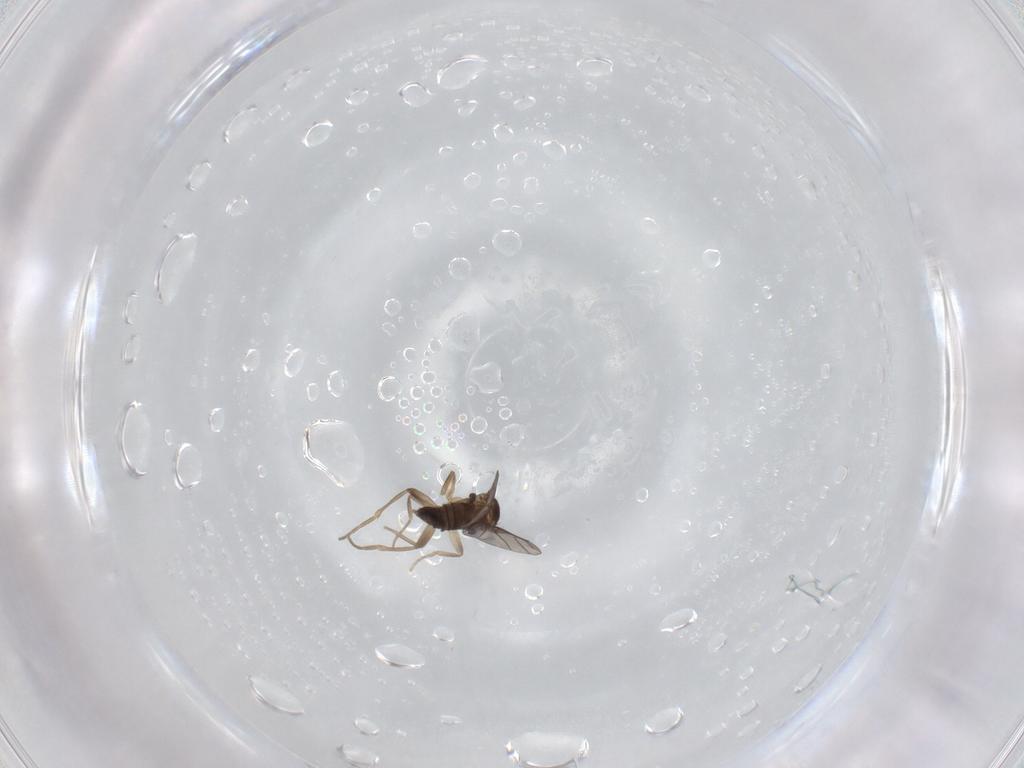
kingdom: Animalia
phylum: Arthropoda
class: Insecta
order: Diptera
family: Phoridae
